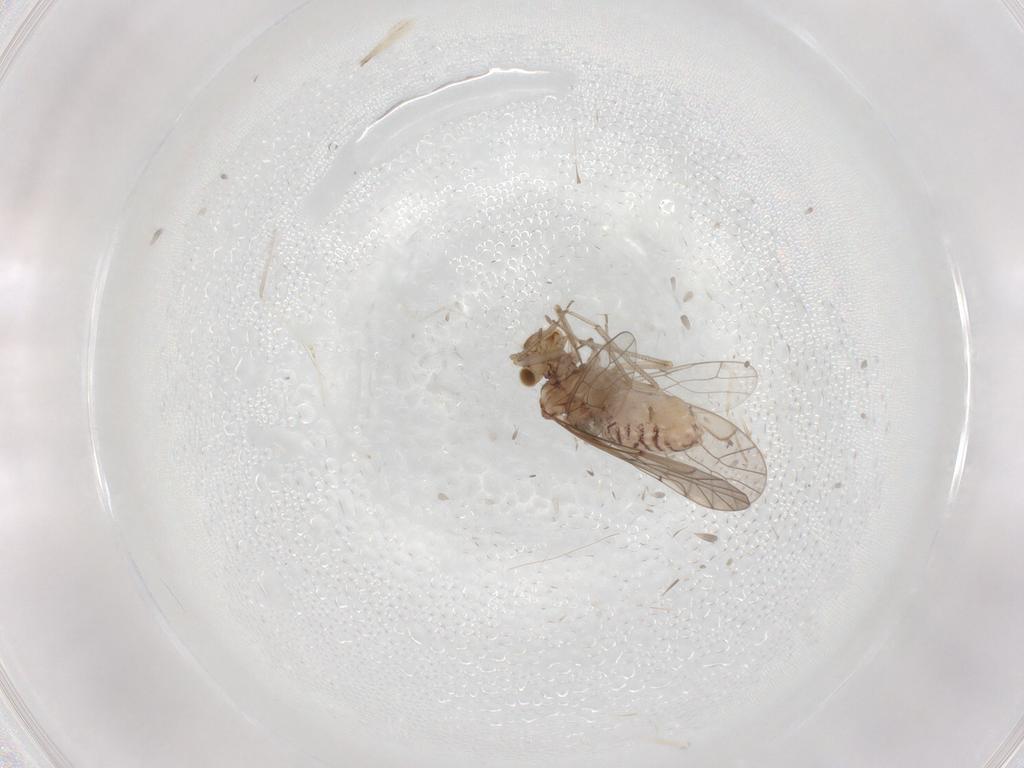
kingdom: Animalia
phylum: Arthropoda
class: Insecta
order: Psocodea
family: Lachesillidae
